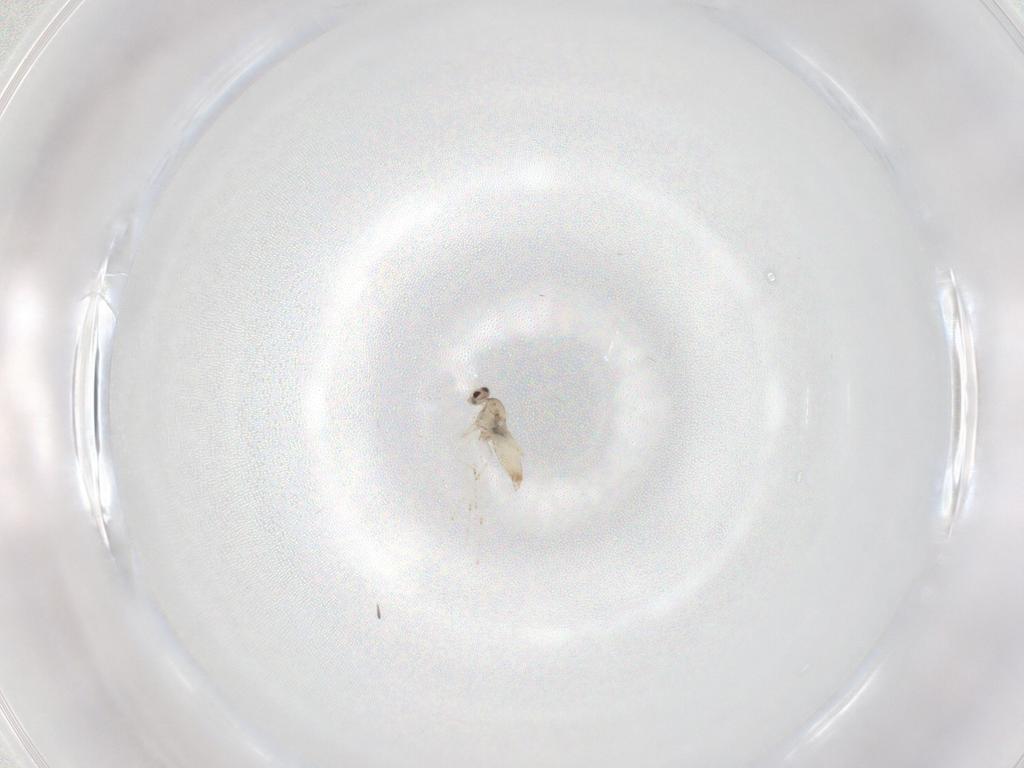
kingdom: Animalia
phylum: Arthropoda
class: Insecta
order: Diptera
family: Cecidomyiidae
